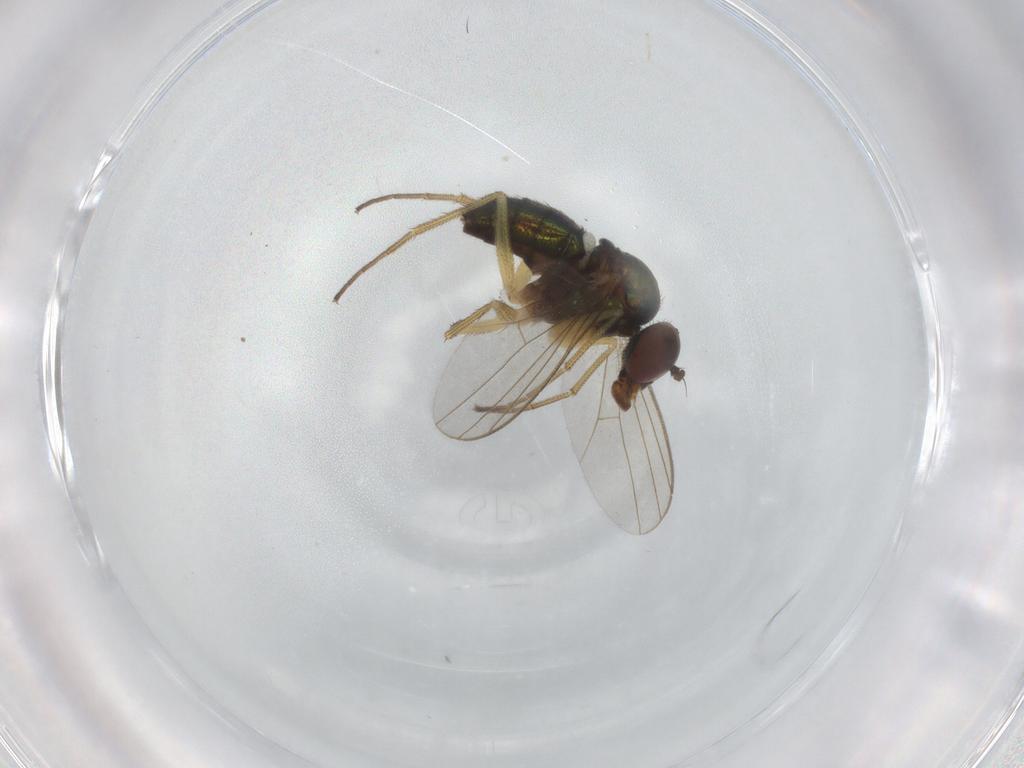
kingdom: Animalia
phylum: Arthropoda
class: Insecta
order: Diptera
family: Dolichopodidae
